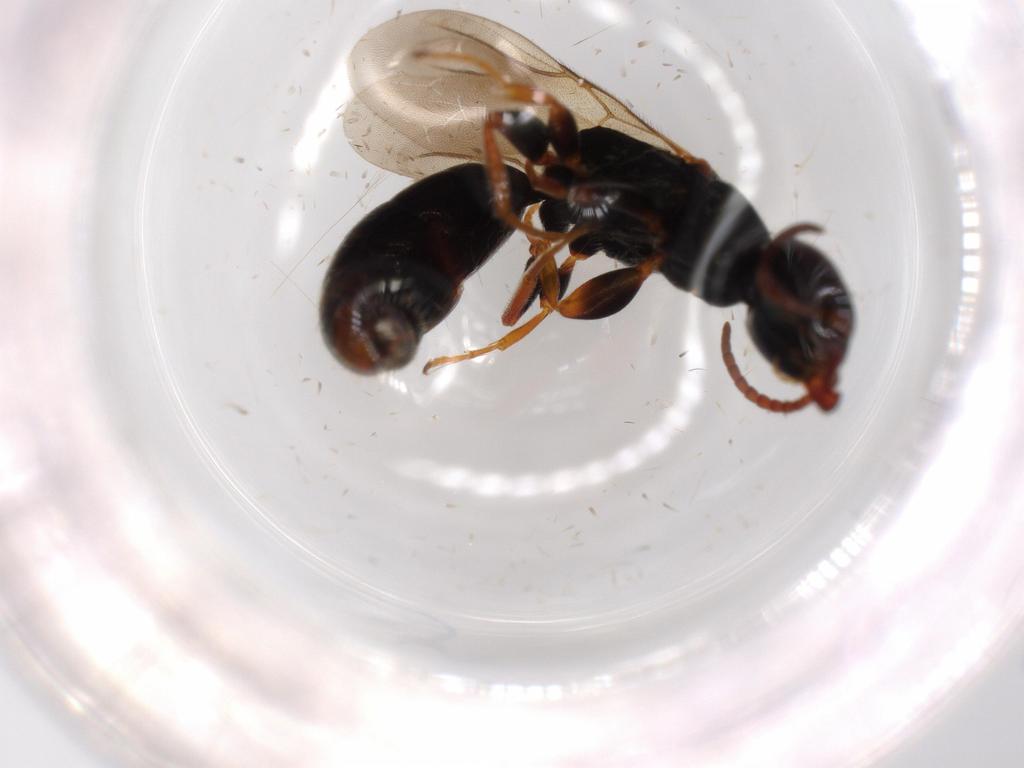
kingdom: Animalia
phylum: Arthropoda
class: Insecta
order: Hymenoptera
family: Bethylidae
